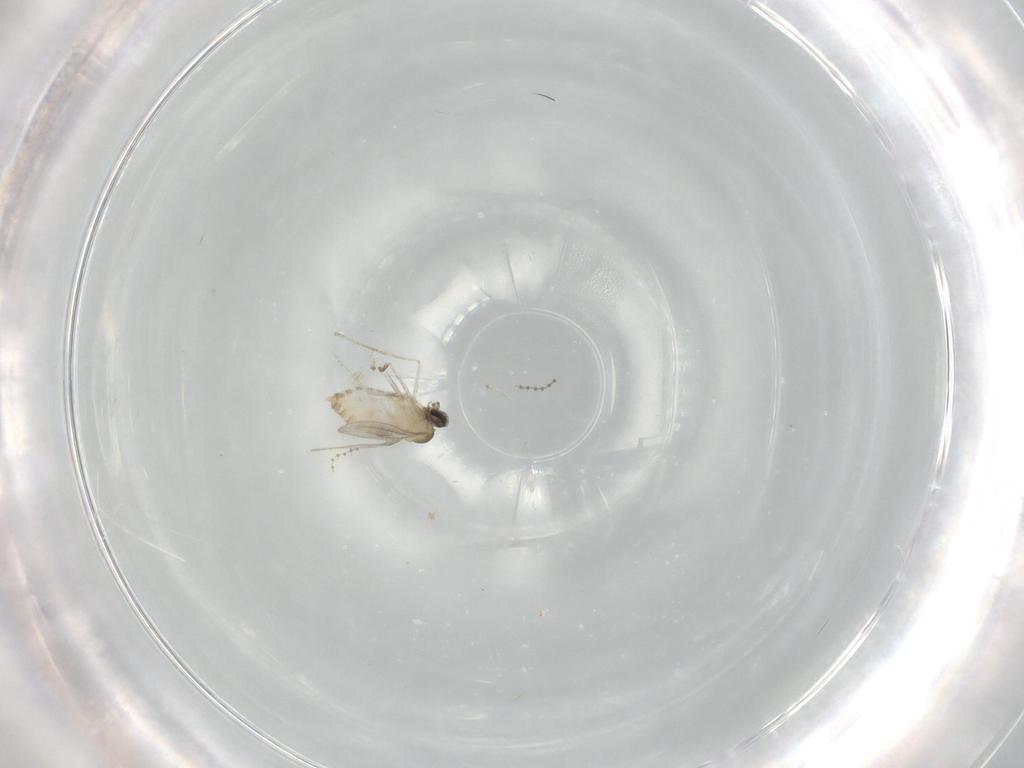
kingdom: Animalia
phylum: Arthropoda
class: Insecta
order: Diptera
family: Cecidomyiidae
